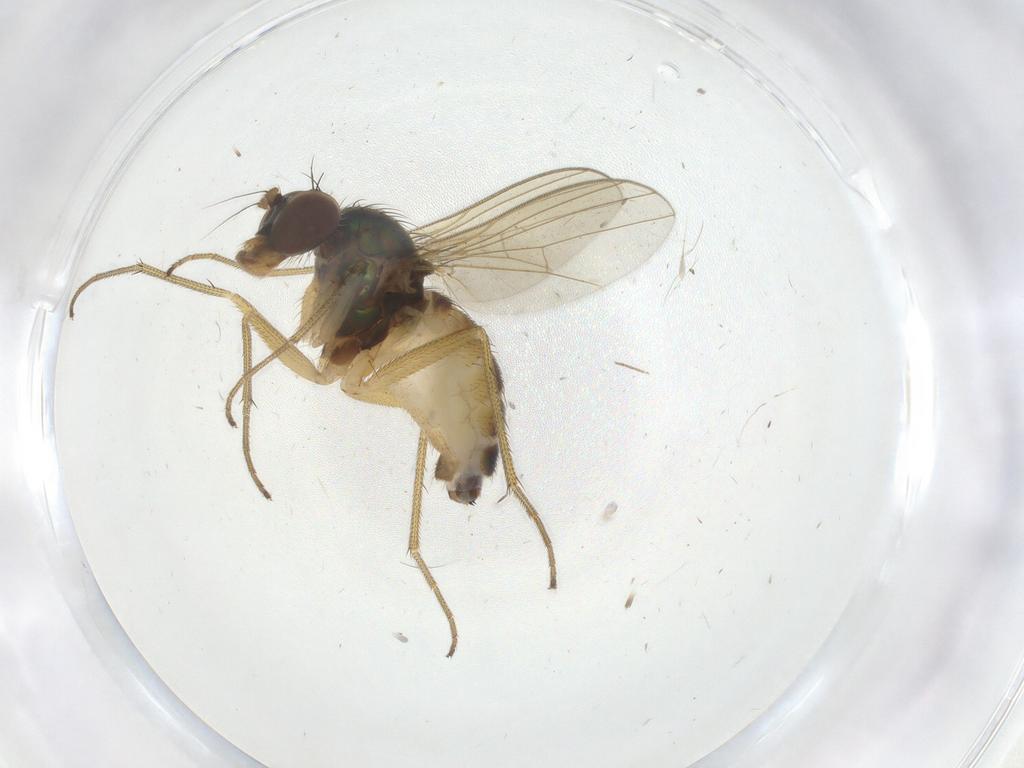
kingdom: Animalia
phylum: Arthropoda
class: Insecta
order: Diptera
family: Dolichopodidae
